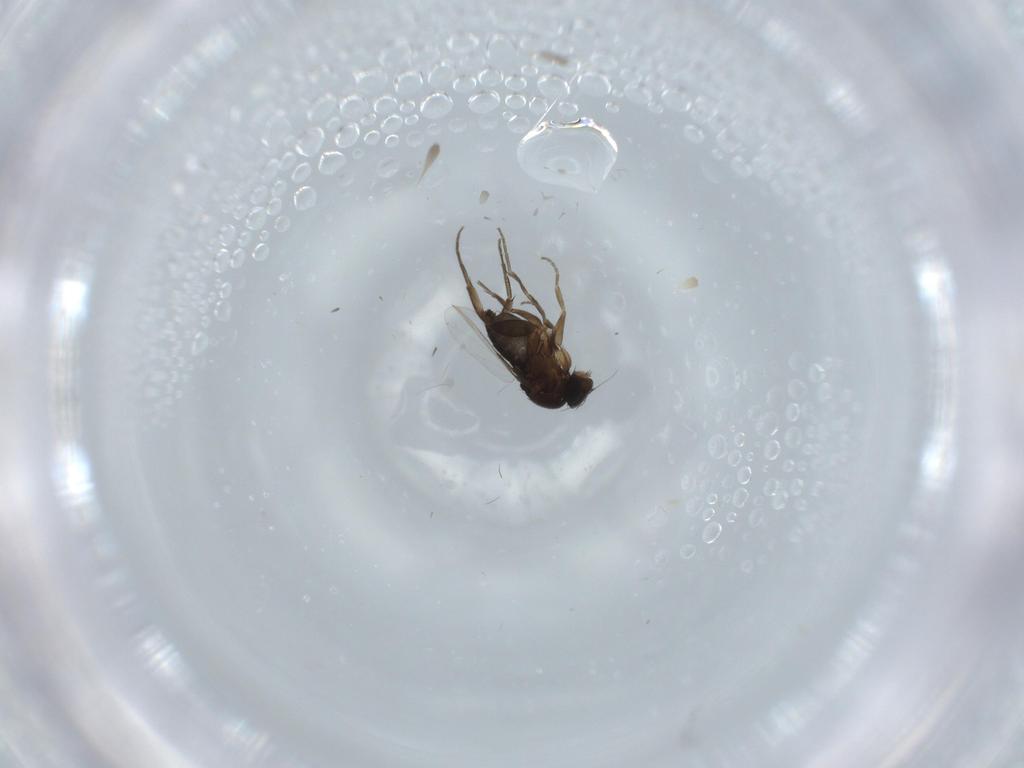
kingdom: Animalia
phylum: Arthropoda
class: Insecta
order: Diptera
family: Phoridae
